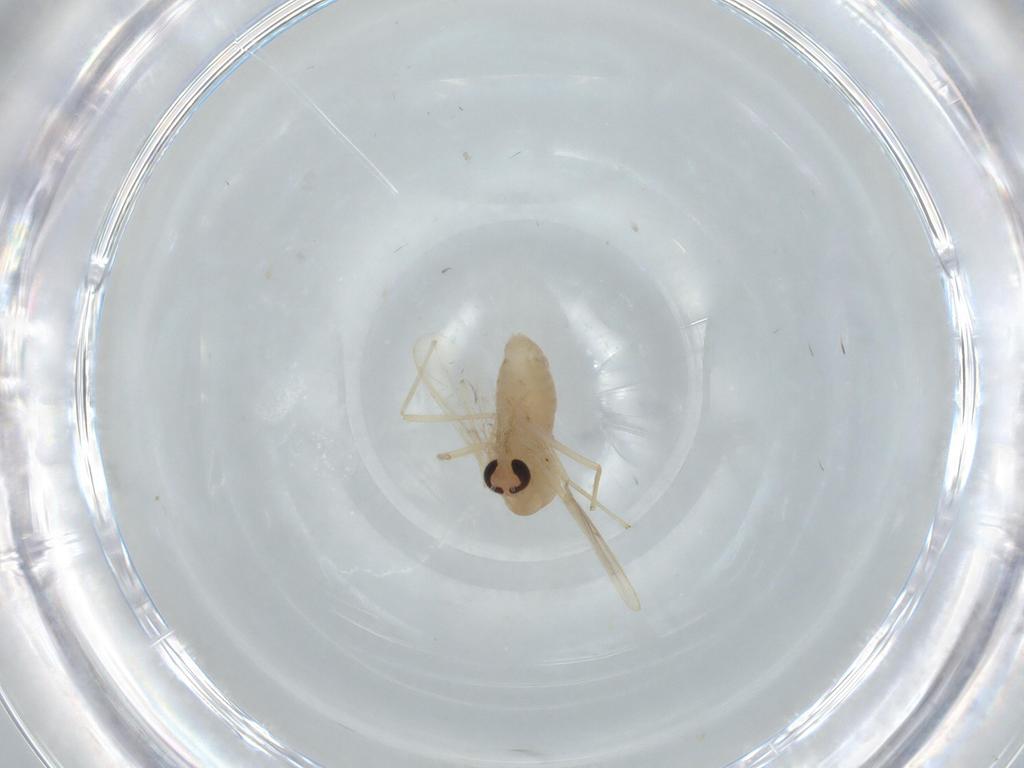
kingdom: Animalia
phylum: Arthropoda
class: Insecta
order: Diptera
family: Chironomidae
